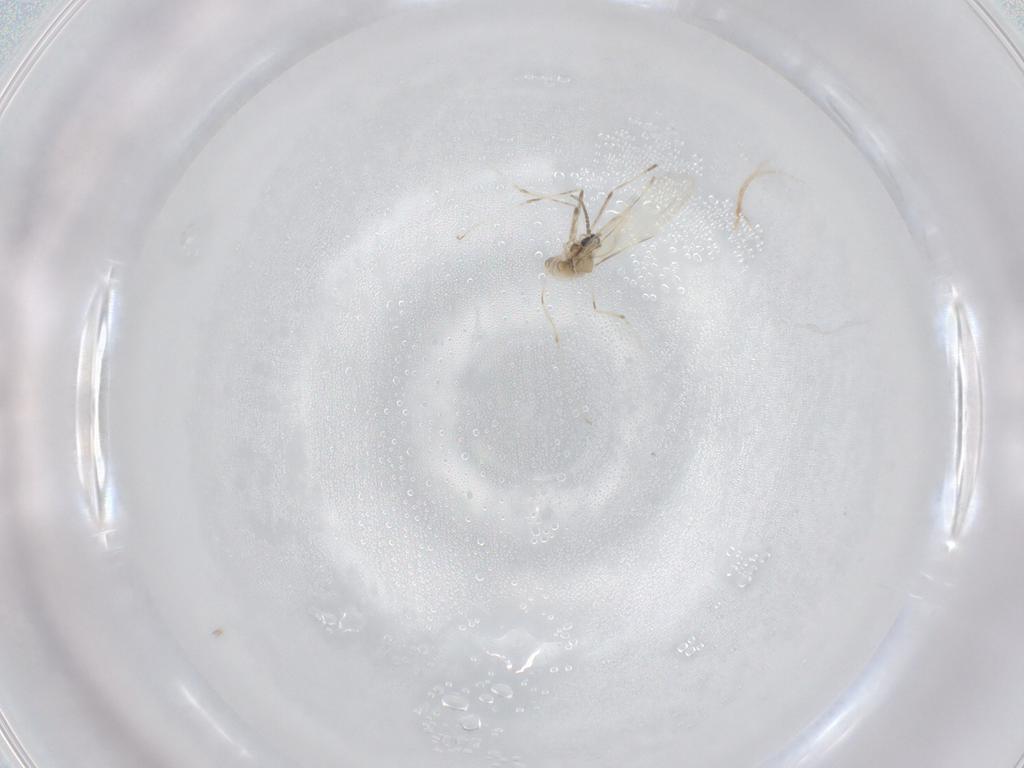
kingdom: Animalia
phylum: Arthropoda
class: Insecta
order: Diptera
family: Cecidomyiidae
